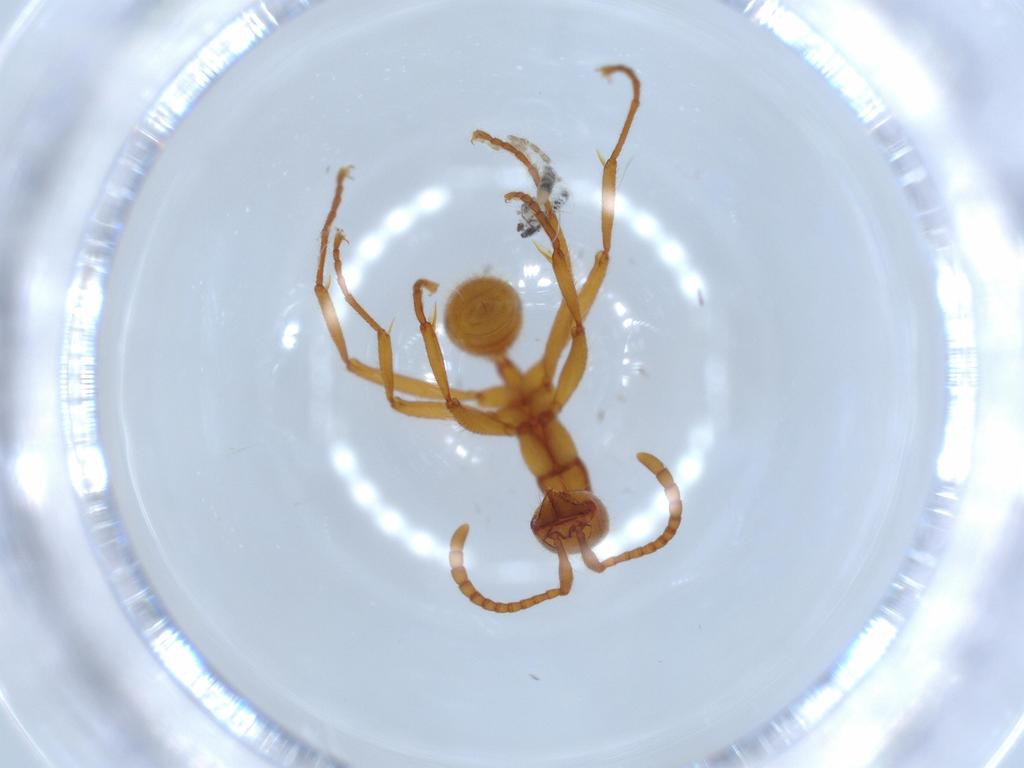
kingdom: Animalia
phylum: Arthropoda
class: Insecta
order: Hymenoptera
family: Formicidae
